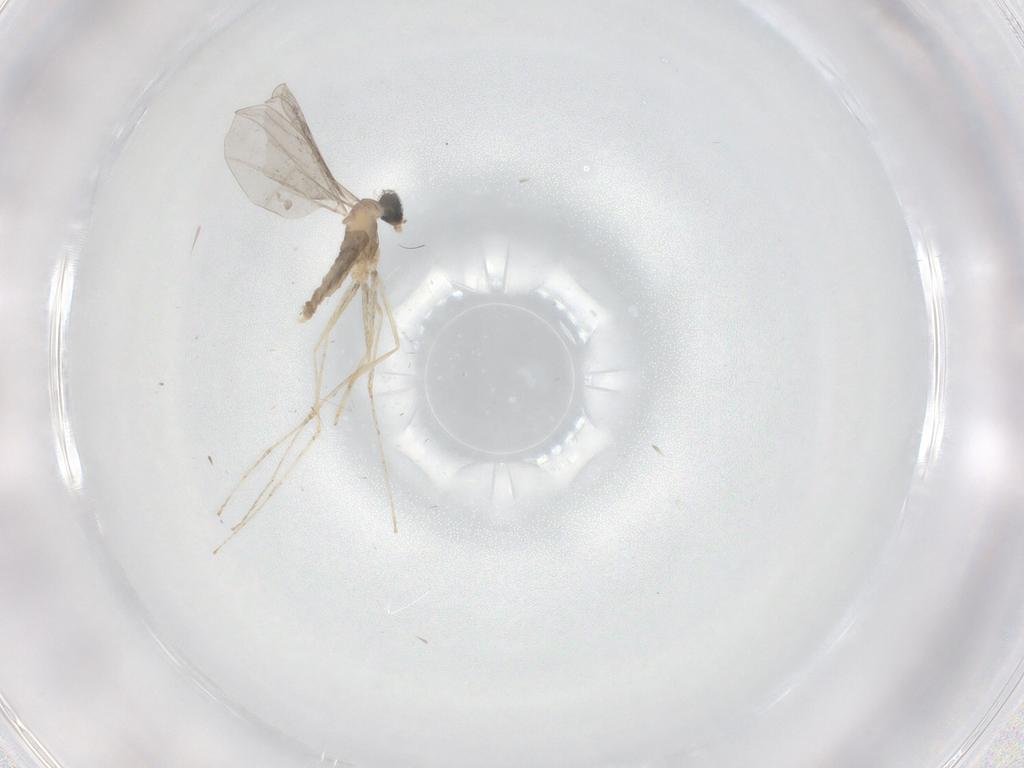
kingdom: Animalia
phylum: Arthropoda
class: Insecta
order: Diptera
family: Cecidomyiidae
